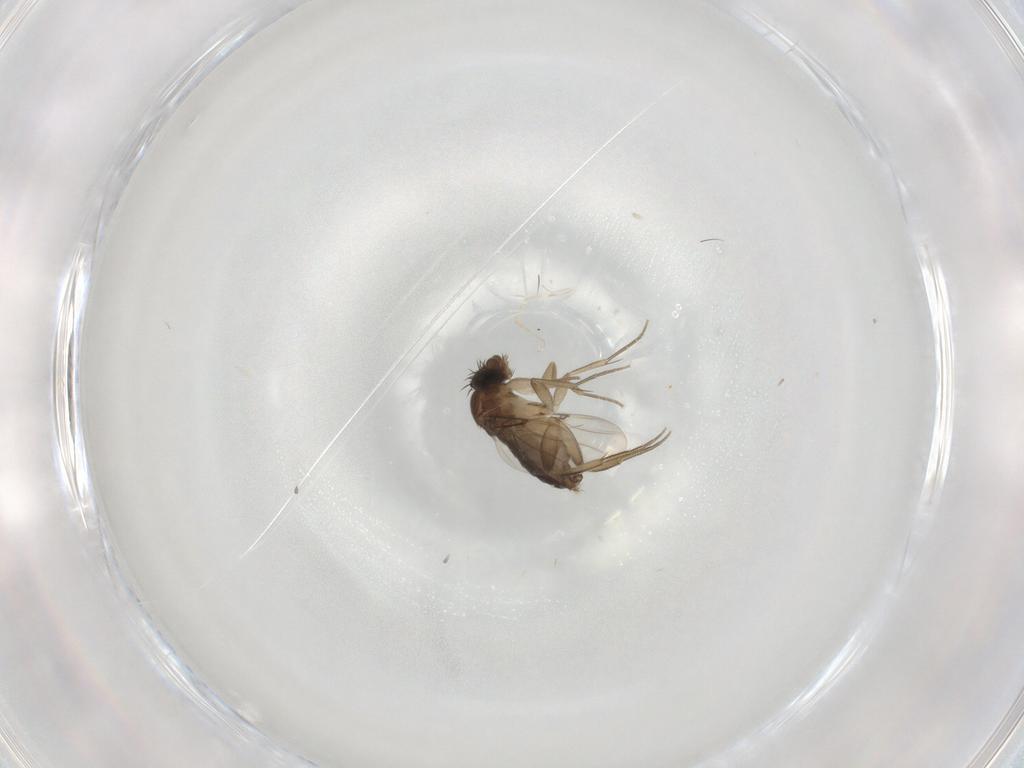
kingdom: Animalia
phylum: Arthropoda
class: Insecta
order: Diptera
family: Phoridae
